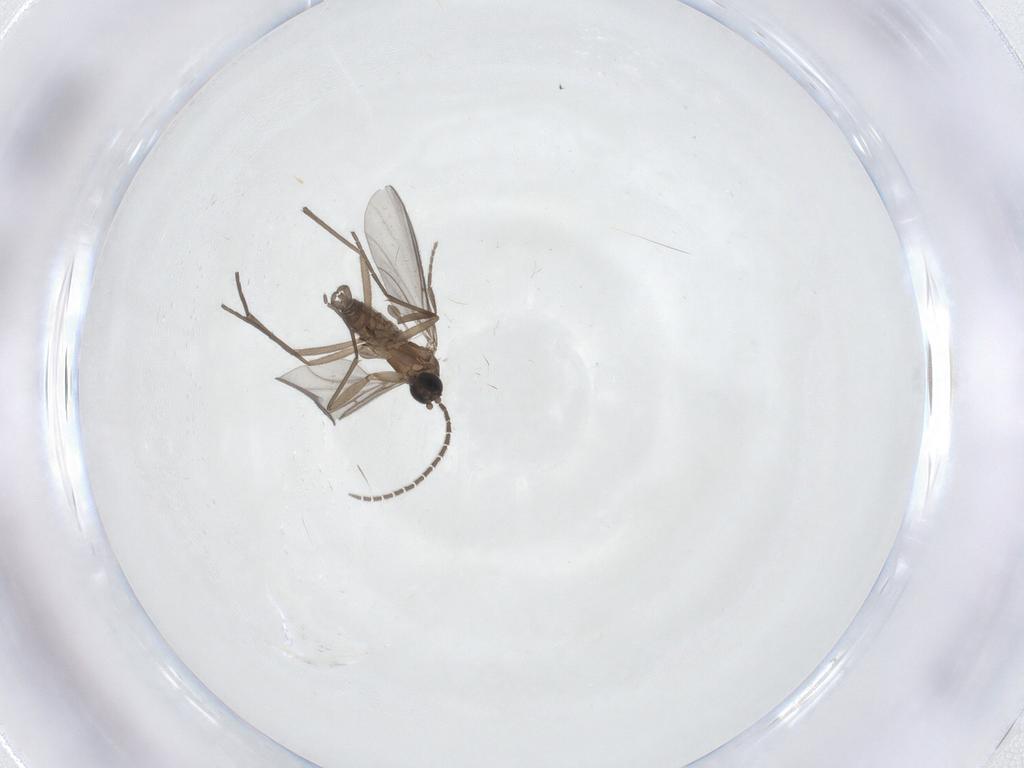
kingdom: Animalia
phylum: Arthropoda
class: Insecta
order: Diptera
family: Sciaridae
